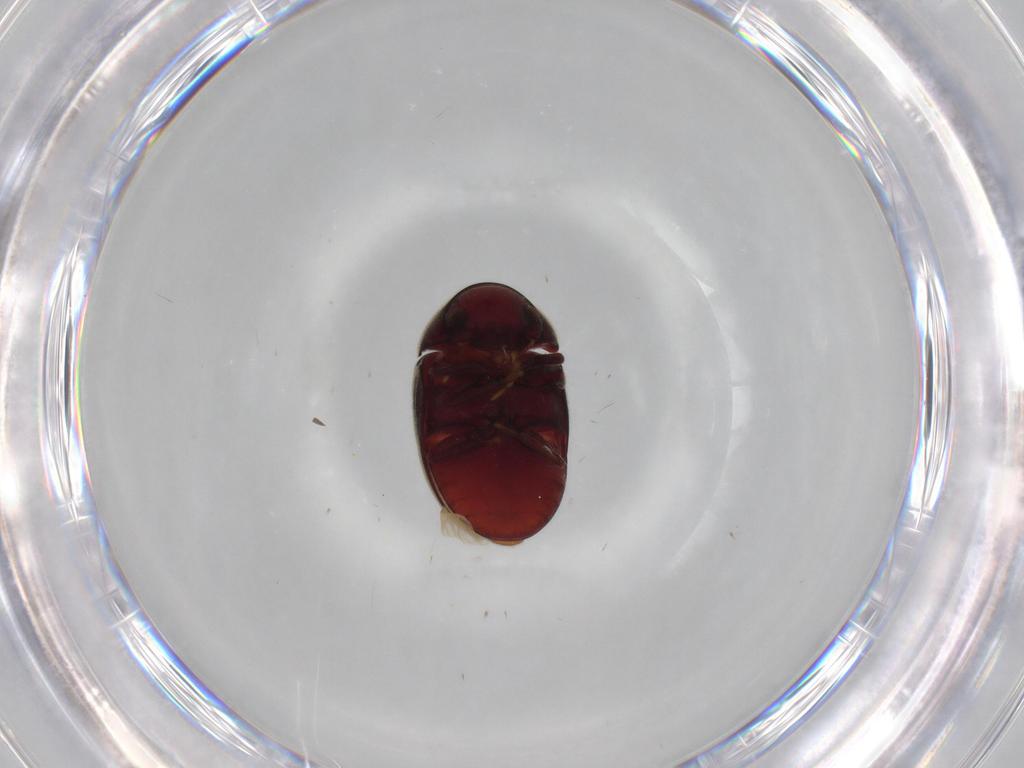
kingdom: Animalia
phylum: Arthropoda
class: Insecta
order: Coleoptera
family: Ptinidae
